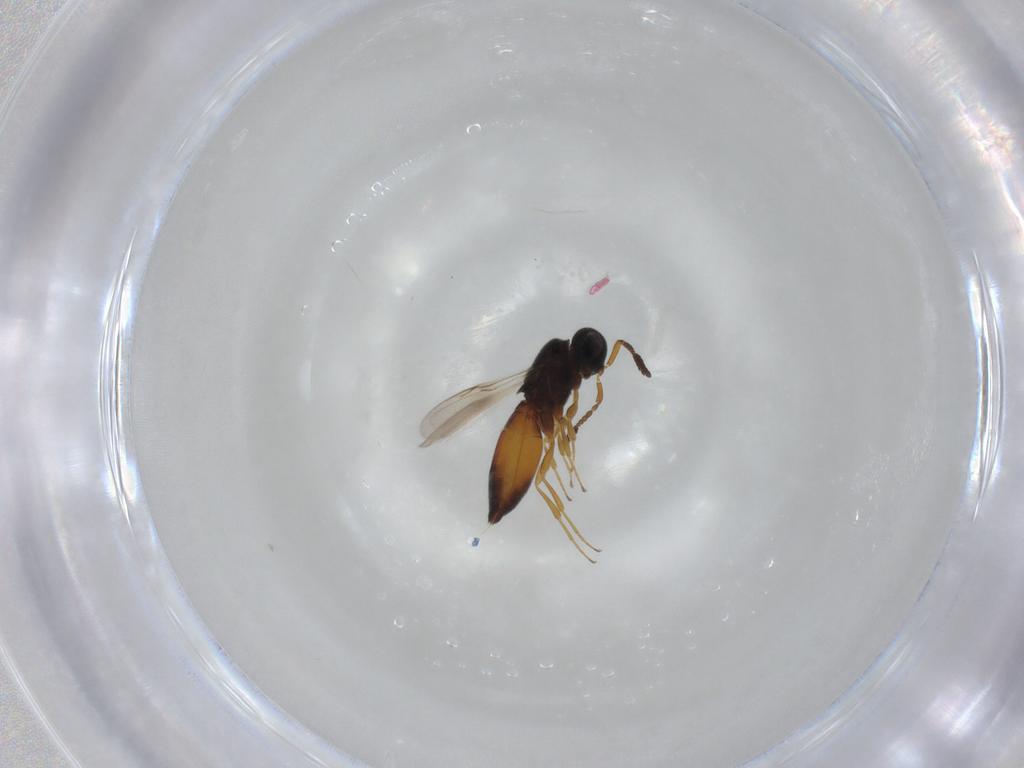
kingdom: Animalia
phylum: Arthropoda
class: Insecta
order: Hymenoptera
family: Scelionidae
